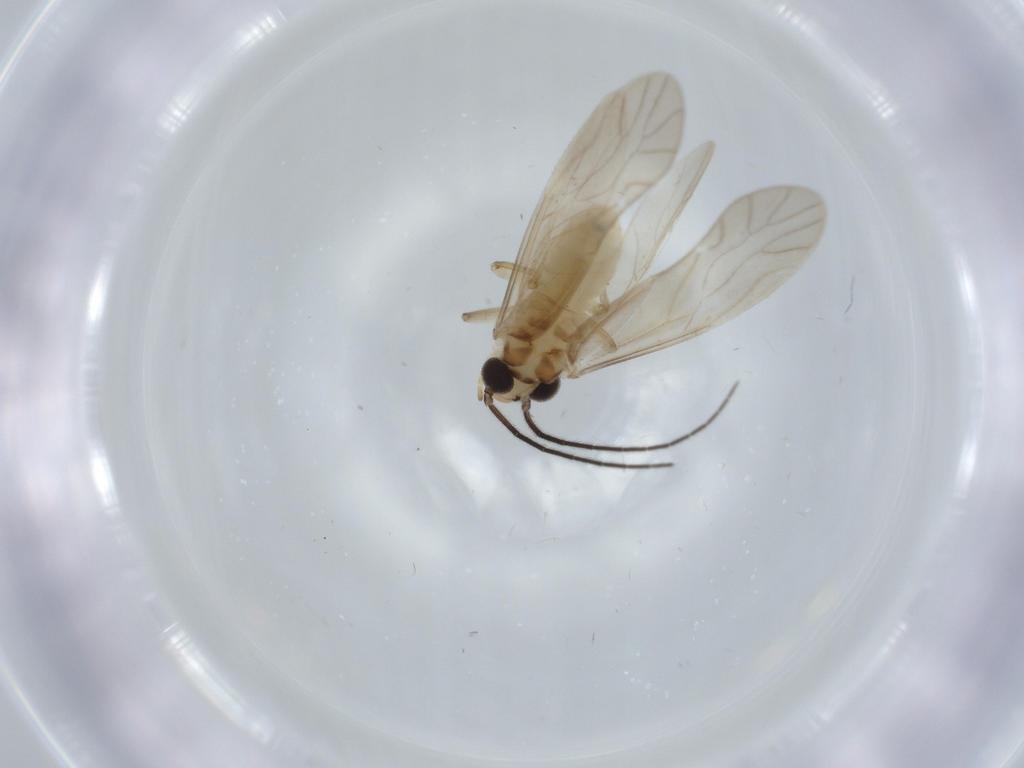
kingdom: Animalia
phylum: Arthropoda
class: Insecta
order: Psocodea
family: Caeciliusidae
